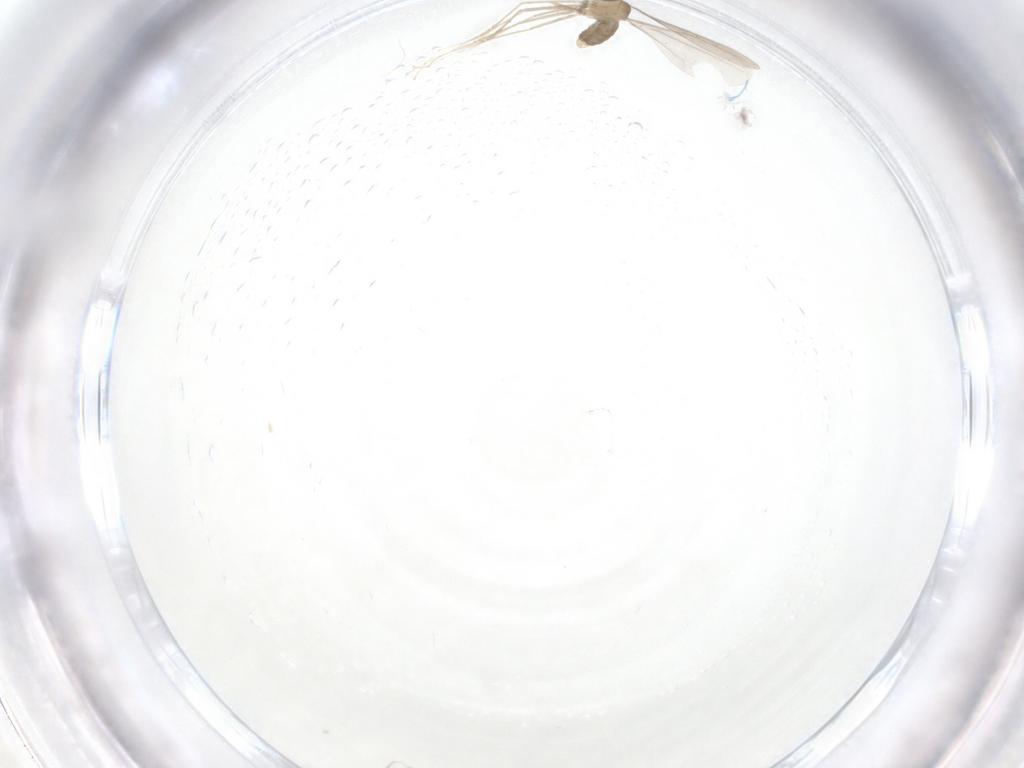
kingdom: Animalia
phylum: Arthropoda
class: Insecta
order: Diptera
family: Cecidomyiidae
